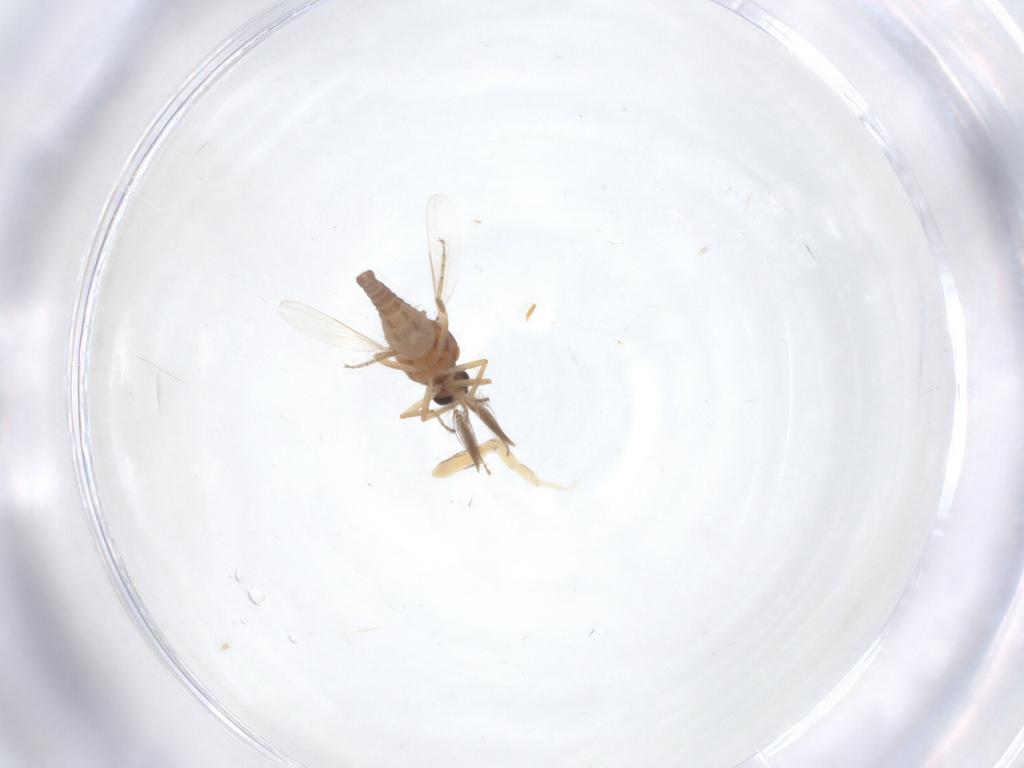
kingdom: Animalia
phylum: Arthropoda
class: Insecta
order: Diptera
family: Ceratopogonidae
